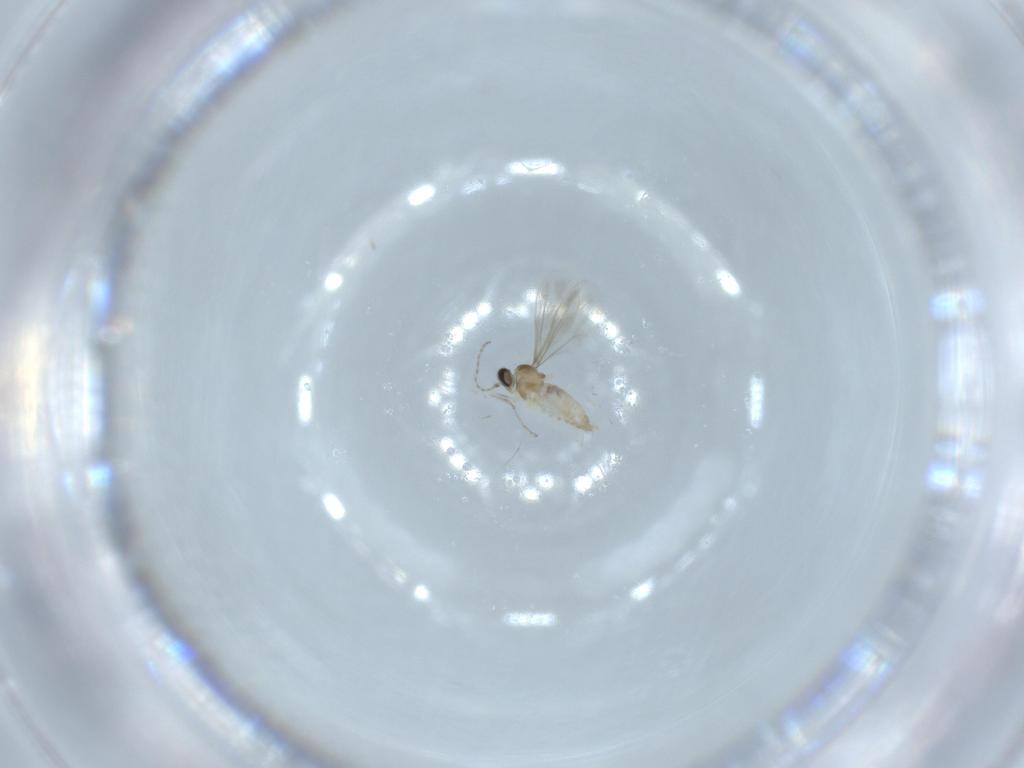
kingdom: Animalia
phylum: Arthropoda
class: Insecta
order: Diptera
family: Cecidomyiidae
